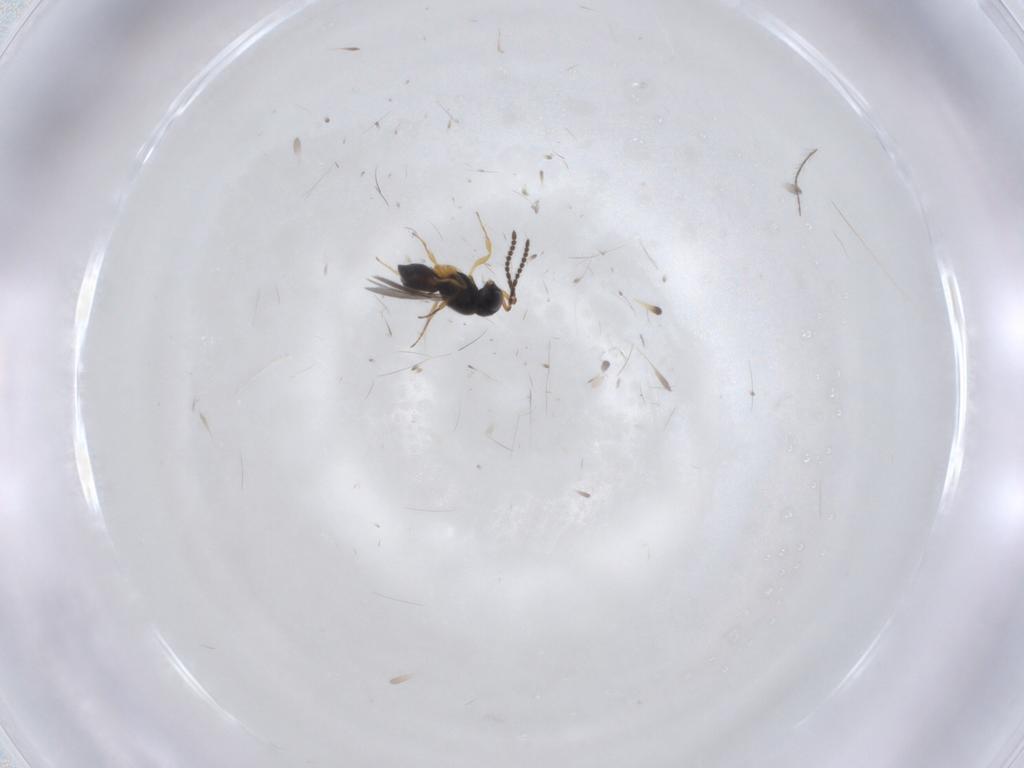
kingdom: Animalia
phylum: Arthropoda
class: Insecta
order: Hymenoptera
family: Scelionidae
